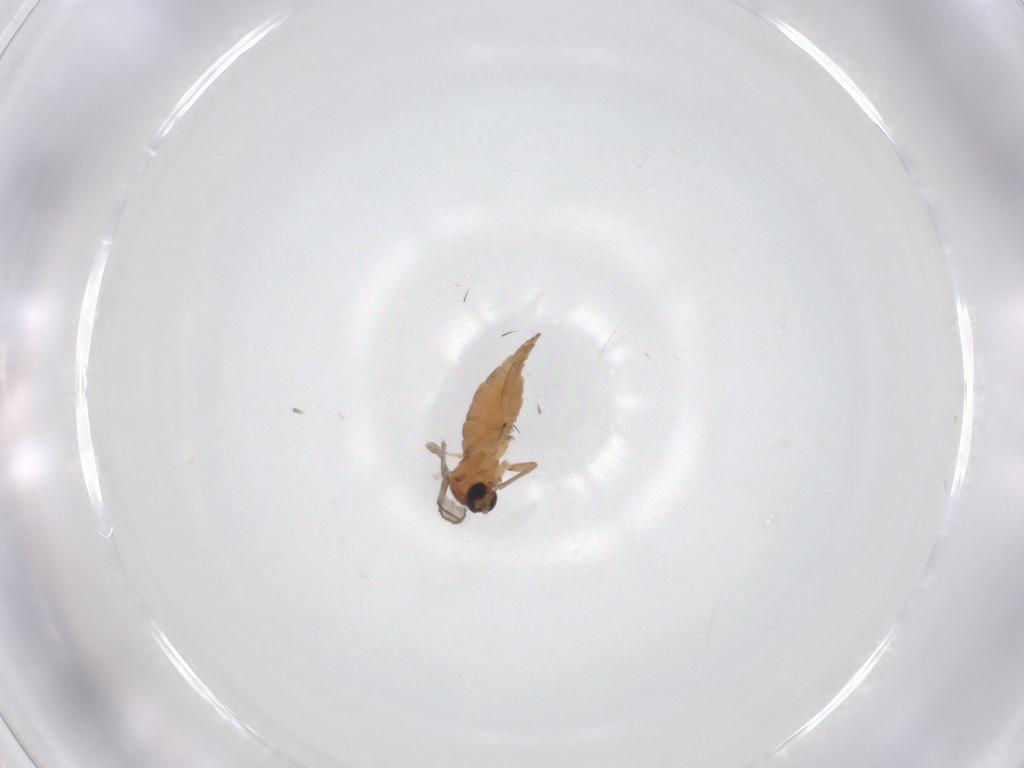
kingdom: Animalia
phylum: Arthropoda
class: Insecta
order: Diptera
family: Sciaridae
